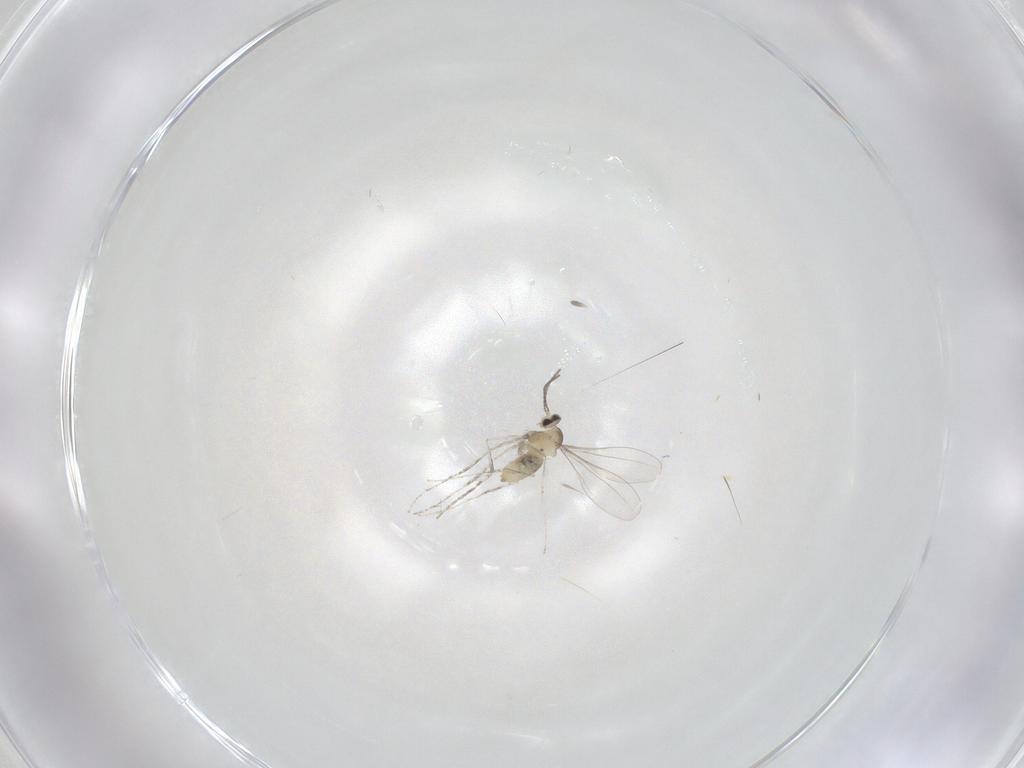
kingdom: Animalia
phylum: Arthropoda
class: Insecta
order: Diptera
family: Cecidomyiidae
